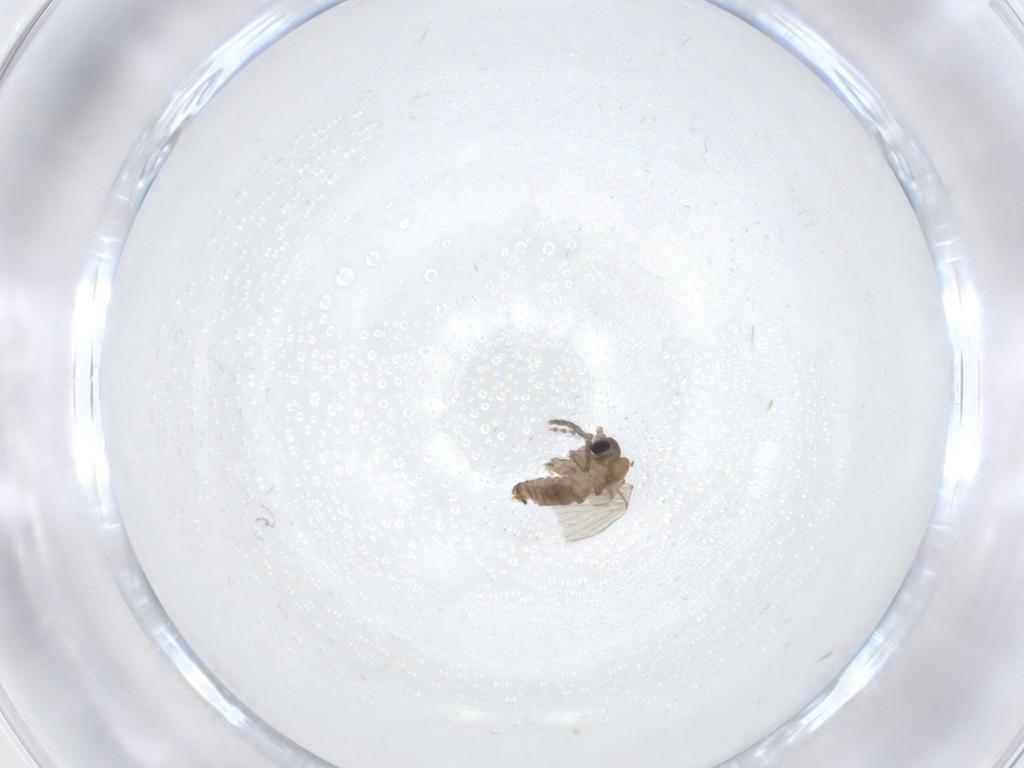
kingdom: Animalia
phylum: Arthropoda
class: Insecta
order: Diptera
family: Psychodidae
